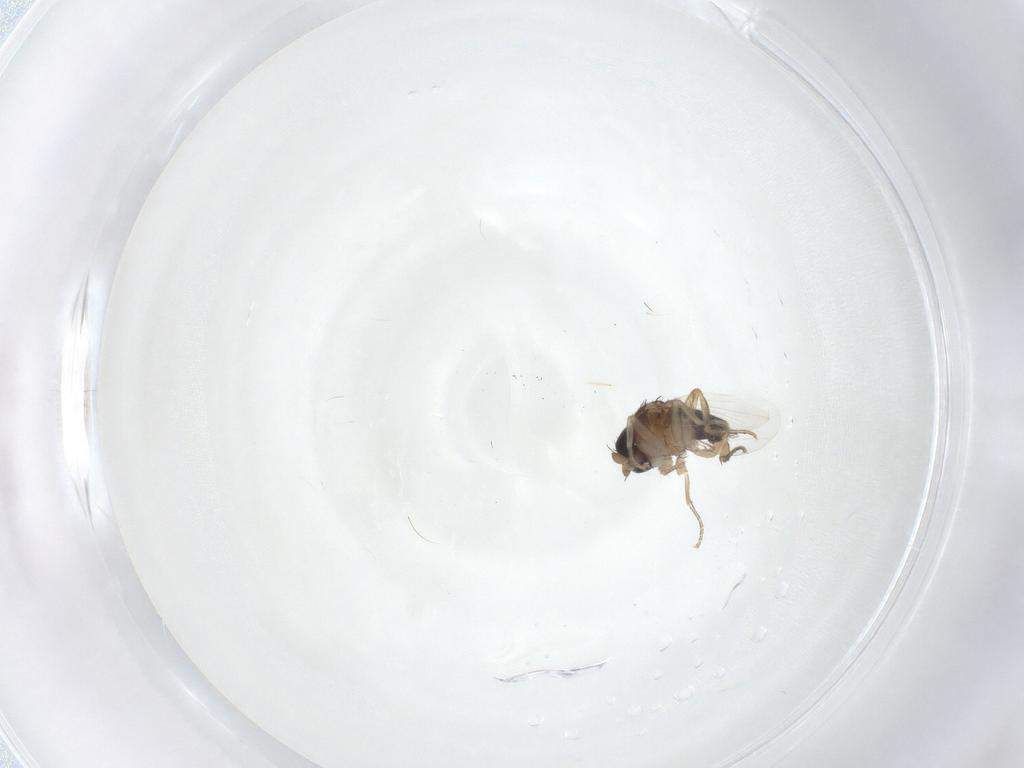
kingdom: Animalia
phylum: Arthropoda
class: Insecta
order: Diptera
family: Phoridae
